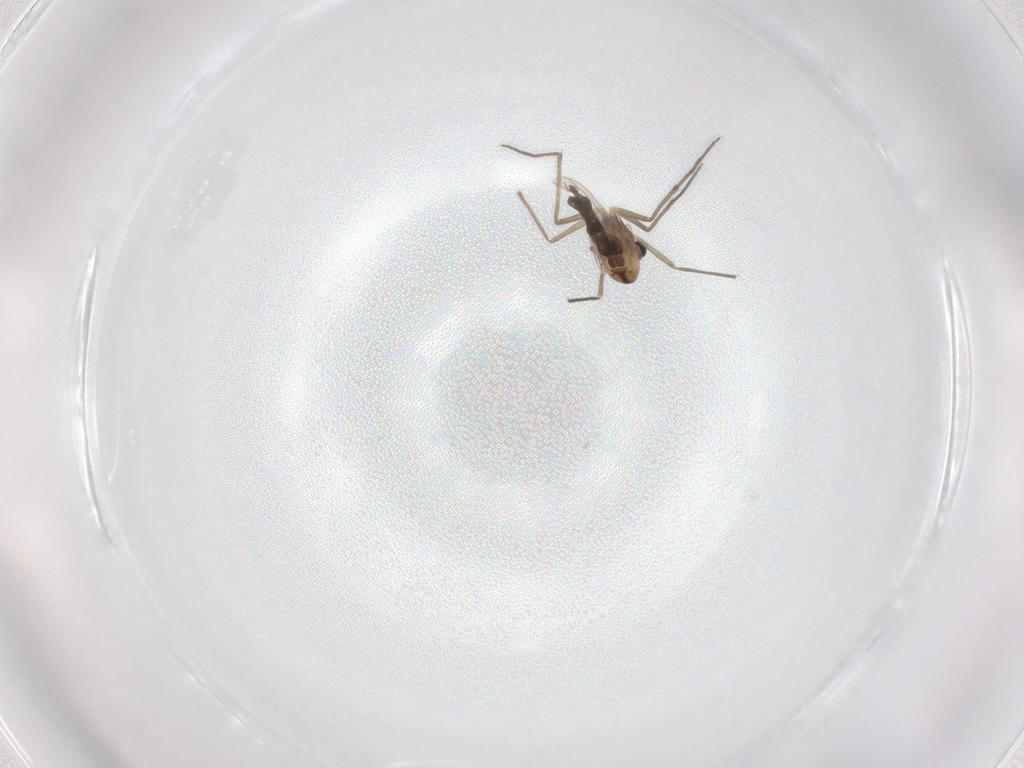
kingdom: Animalia
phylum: Arthropoda
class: Insecta
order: Diptera
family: Chironomidae
